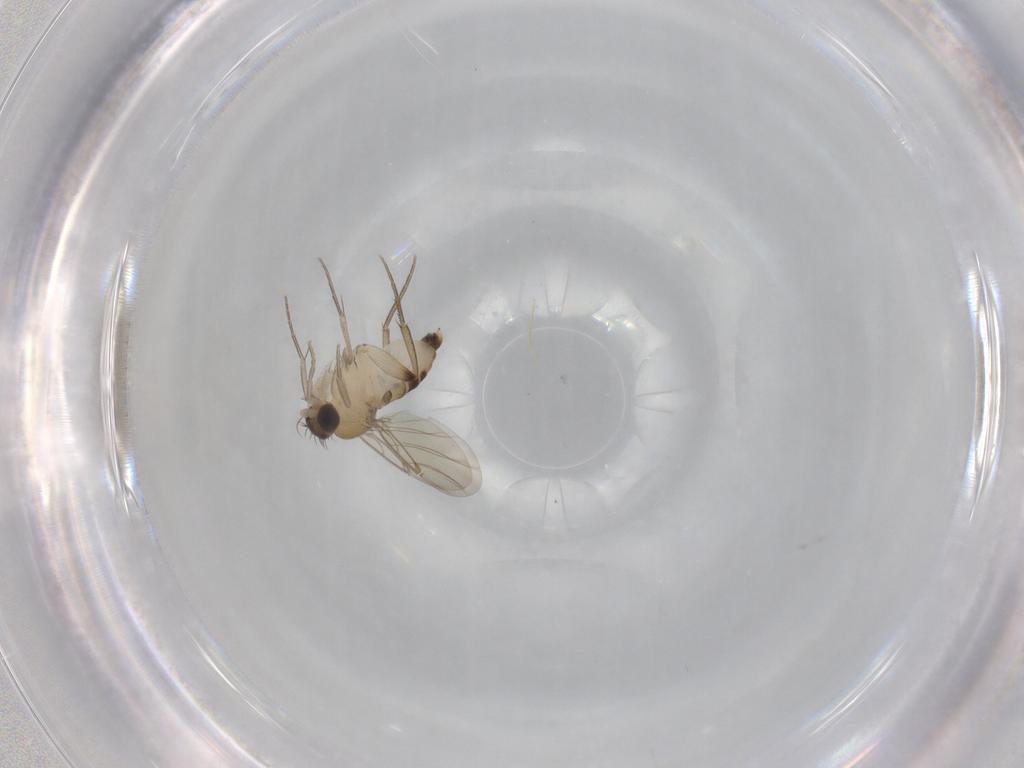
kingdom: Animalia
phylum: Arthropoda
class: Insecta
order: Diptera
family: Phoridae
